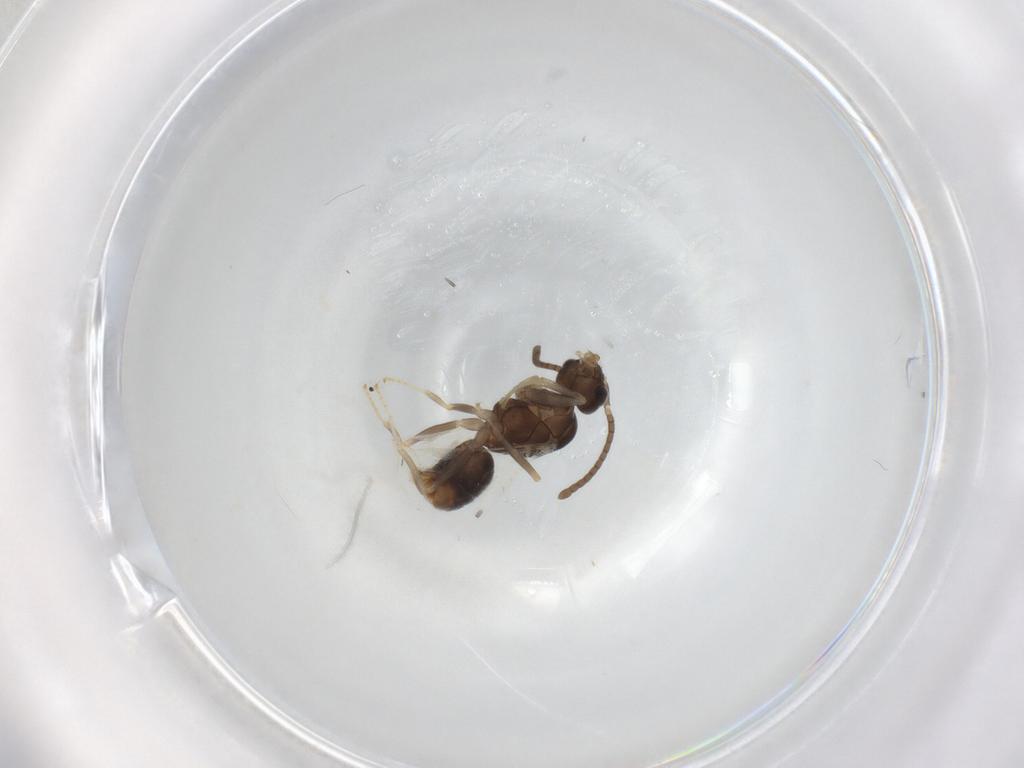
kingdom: Animalia
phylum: Arthropoda
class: Insecta
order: Hymenoptera
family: Formicidae
